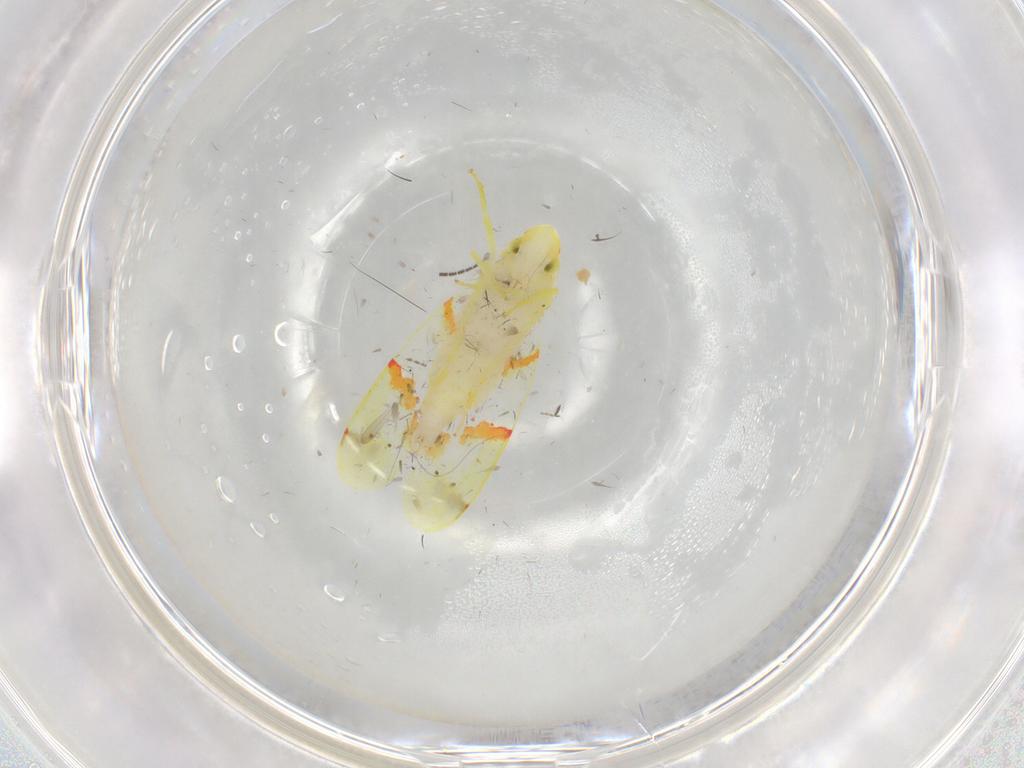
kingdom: Animalia
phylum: Arthropoda
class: Insecta
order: Hemiptera
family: Cicadellidae
